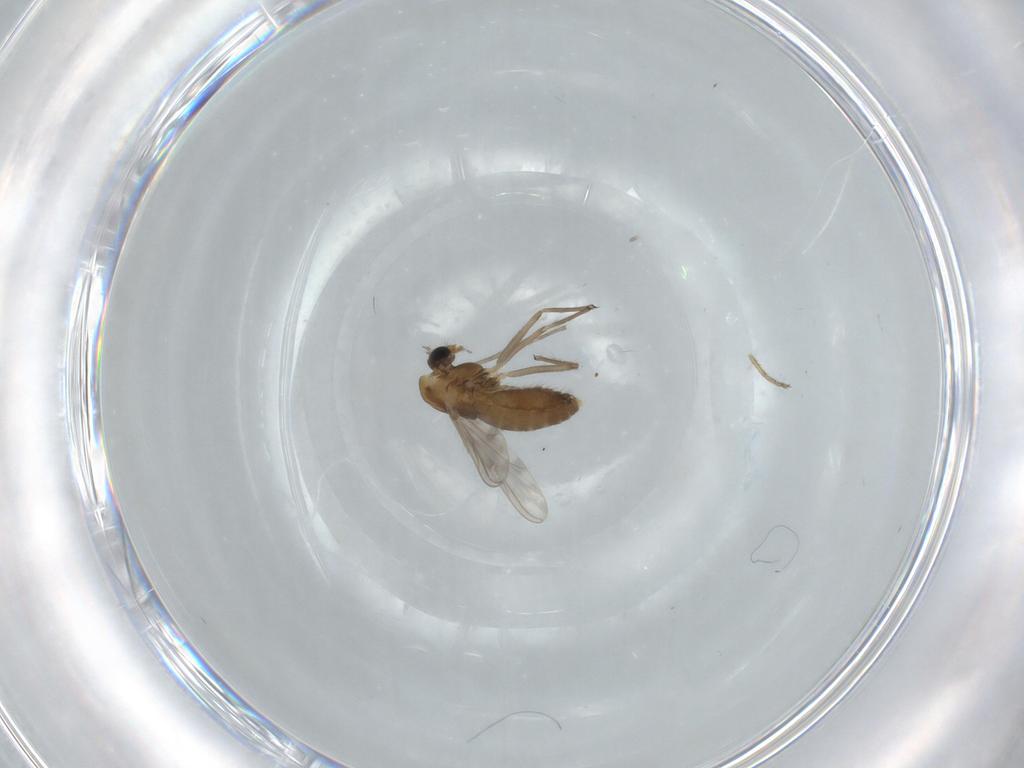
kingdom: Animalia
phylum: Arthropoda
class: Insecta
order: Diptera
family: Chironomidae
